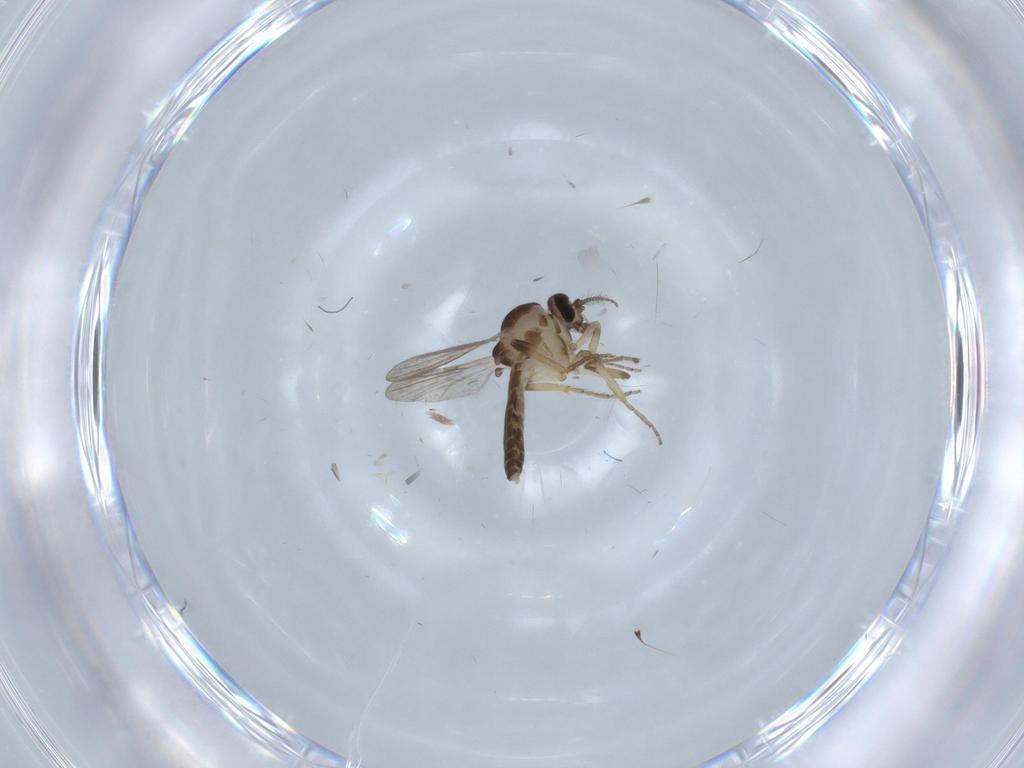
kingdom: Animalia
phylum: Arthropoda
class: Insecta
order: Diptera
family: Ceratopogonidae
